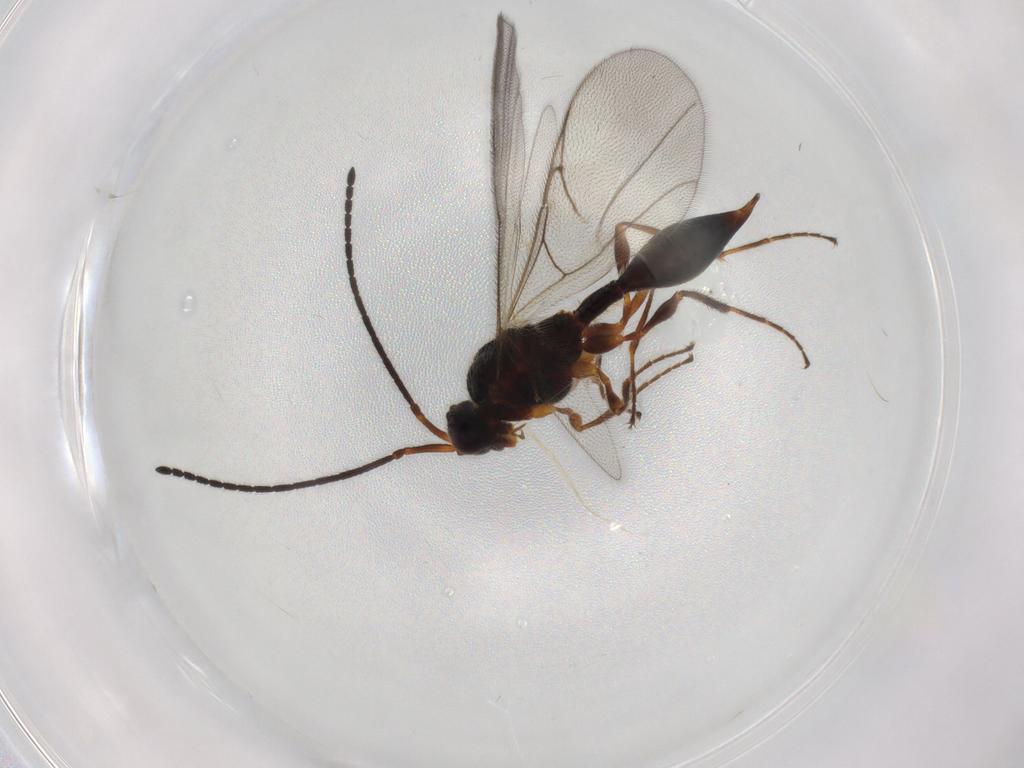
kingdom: Animalia
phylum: Arthropoda
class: Insecta
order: Hymenoptera
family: Diapriidae
